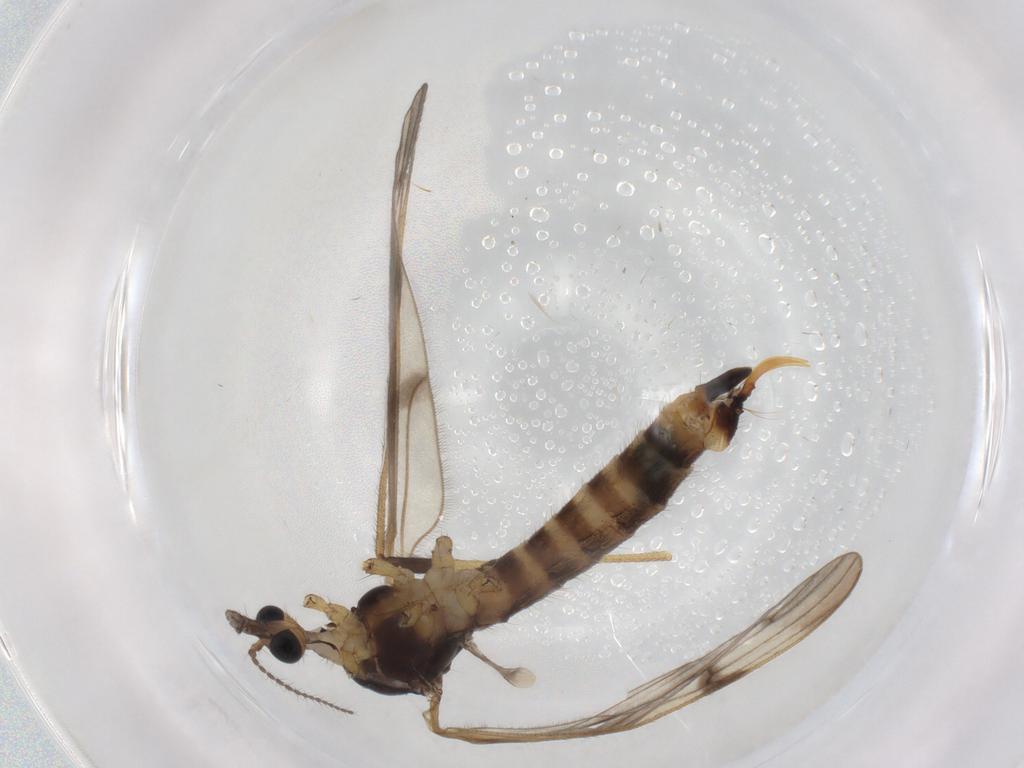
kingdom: Animalia
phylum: Arthropoda
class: Insecta
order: Diptera
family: Limoniidae
